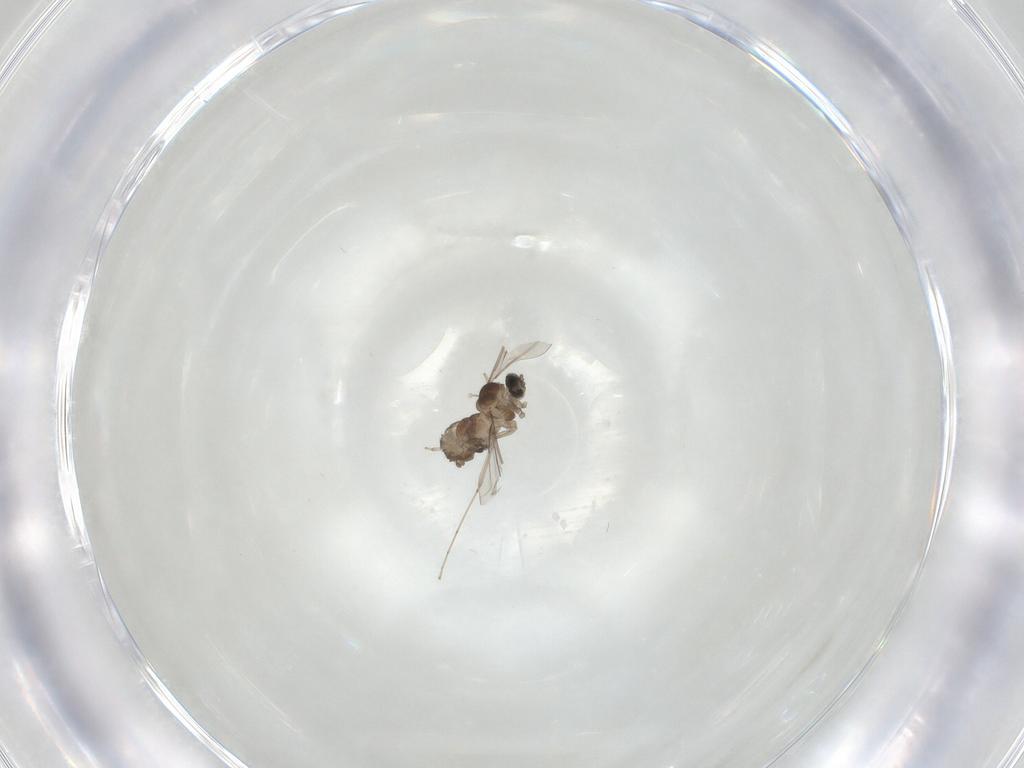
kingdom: Animalia
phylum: Arthropoda
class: Insecta
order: Diptera
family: Cecidomyiidae
